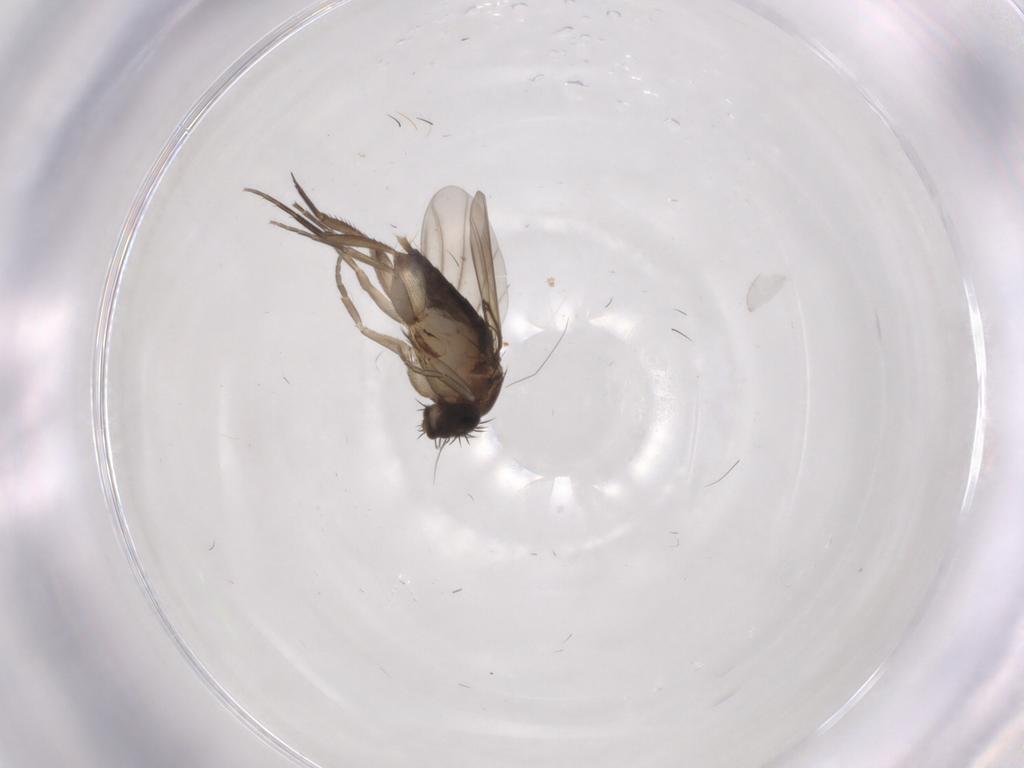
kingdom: Animalia
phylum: Arthropoda
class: Insecta
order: Diptera
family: Phoridae
